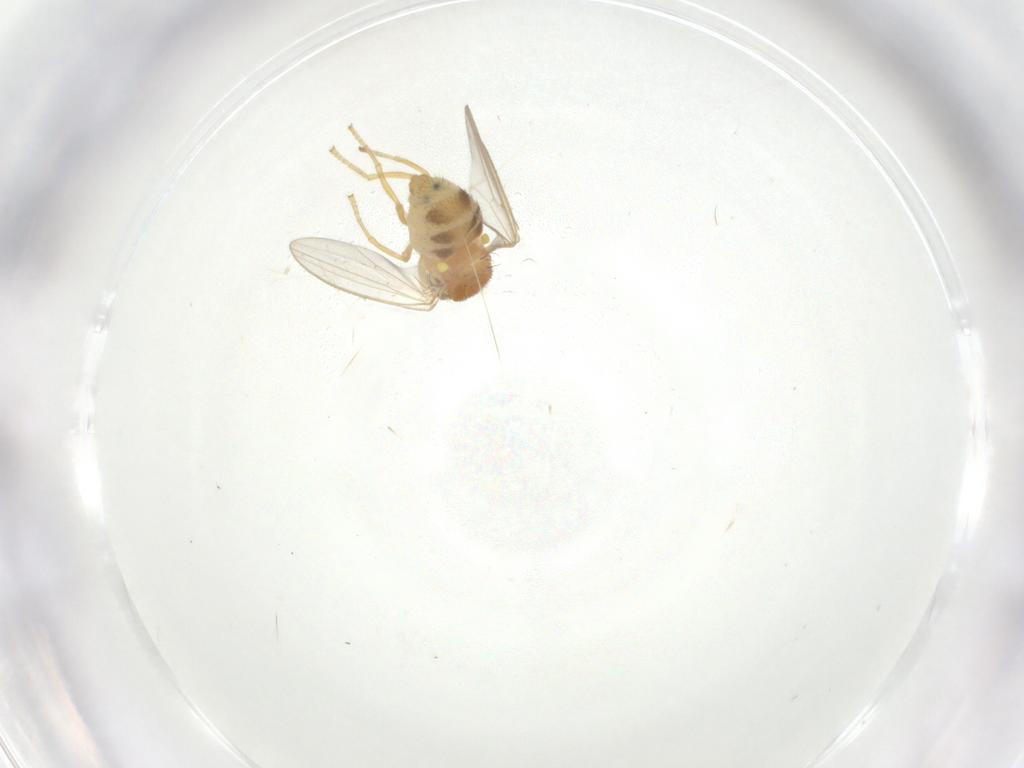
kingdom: Animalia
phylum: Arthropoda
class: Insecta
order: Diptera
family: Chyromyidae
